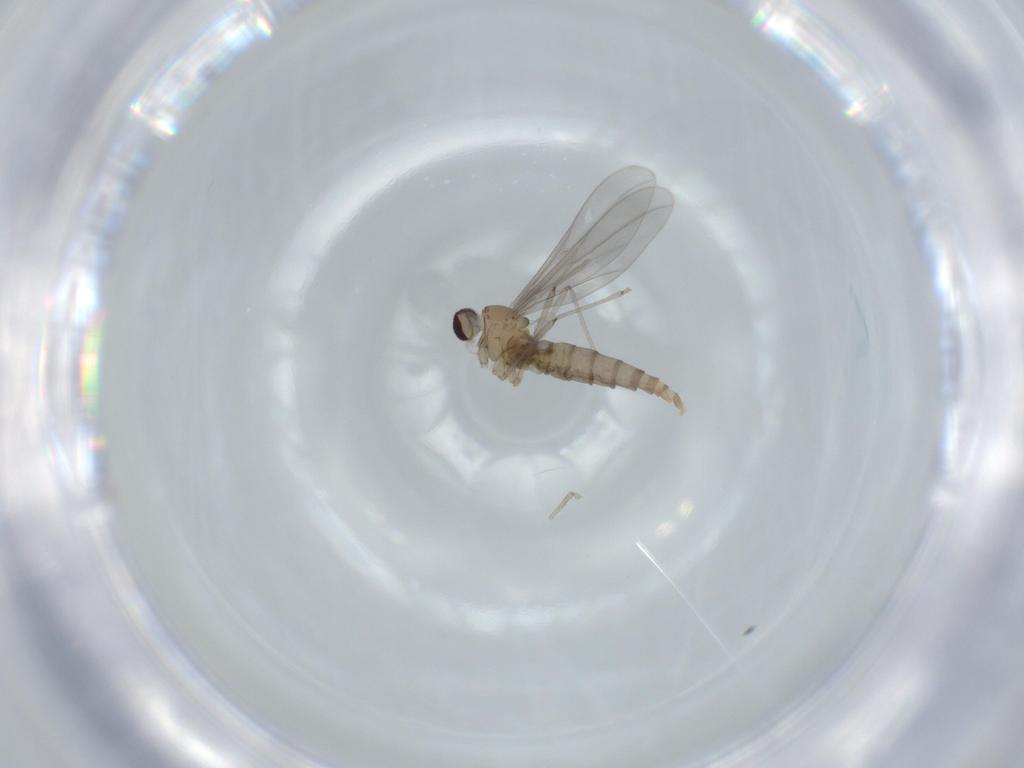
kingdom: Animalia
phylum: Arthropoda
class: Insecta
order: Diptera
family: Cecidomyiidae
